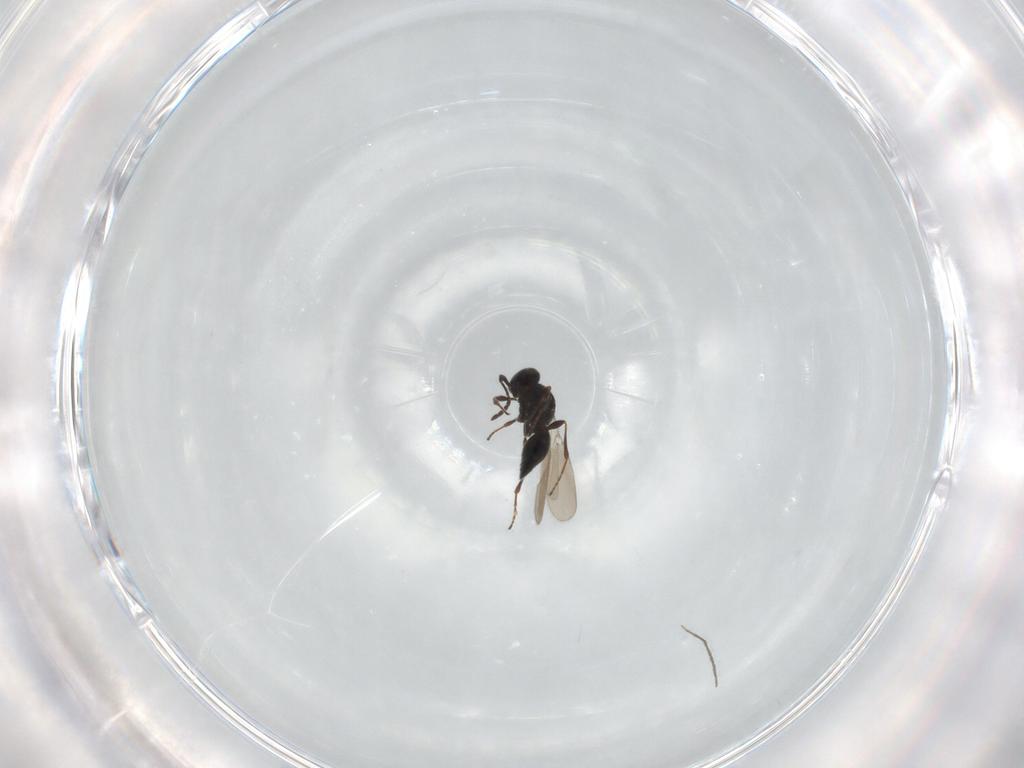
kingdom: Animalia
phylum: Arthropoda
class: Insecta
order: Hymenoptera
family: Platygastridae
